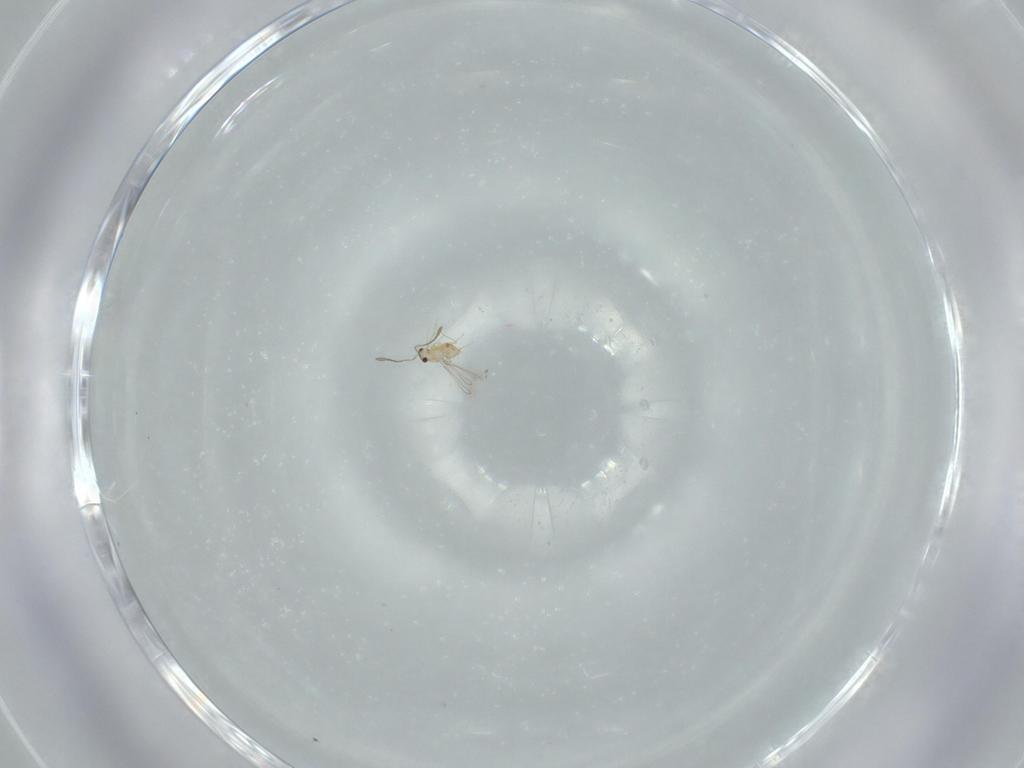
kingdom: Animalia
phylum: Arthropoda
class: Insecta
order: Hymenoptera
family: Mymaridae
